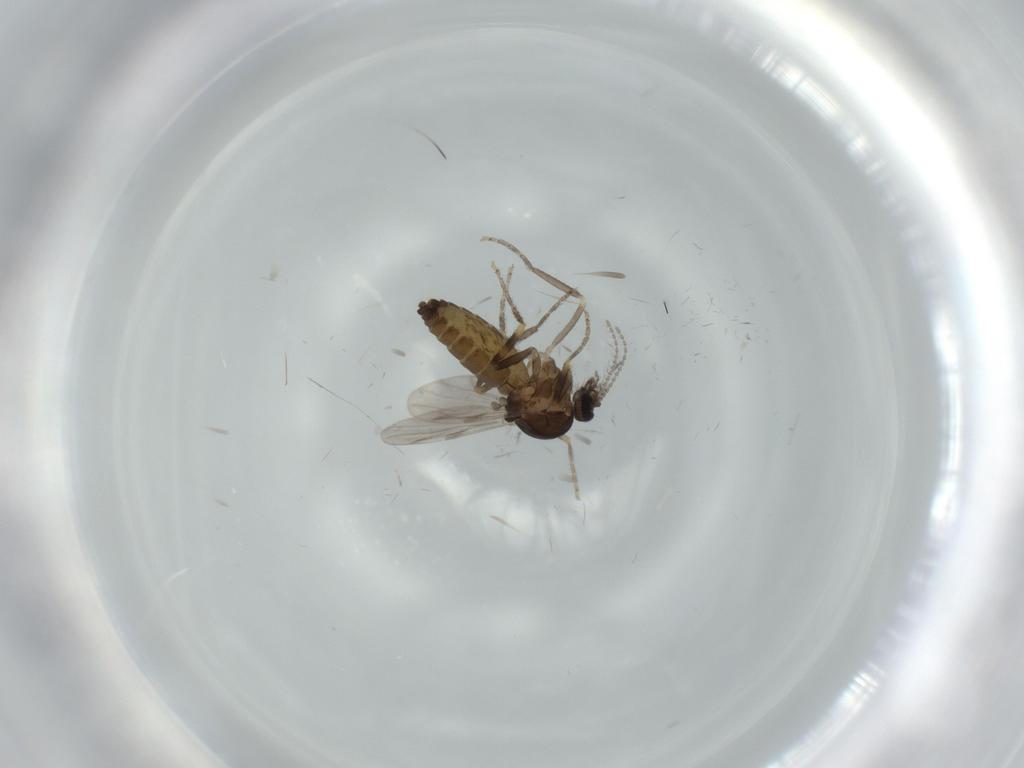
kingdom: Animalia
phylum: Arthropoda
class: Insecta
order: Diptera
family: Ceratopogonidae
